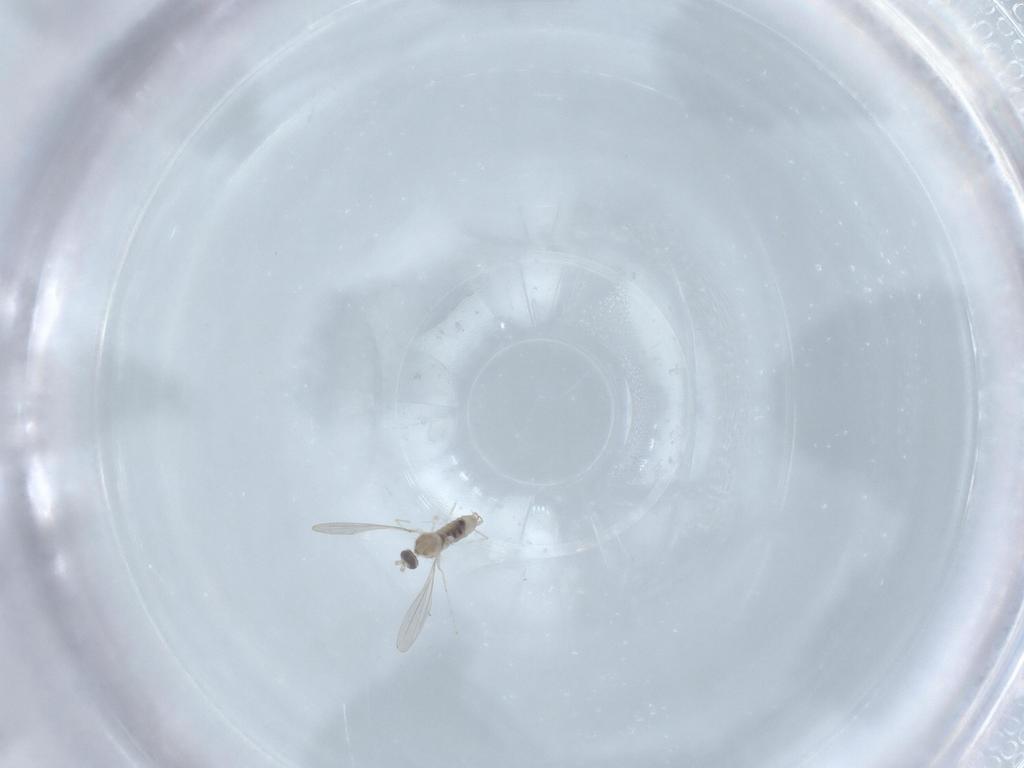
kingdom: Animalia
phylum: Arthropoda
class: Insecta
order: Diptera
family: Cecidomyiidae
